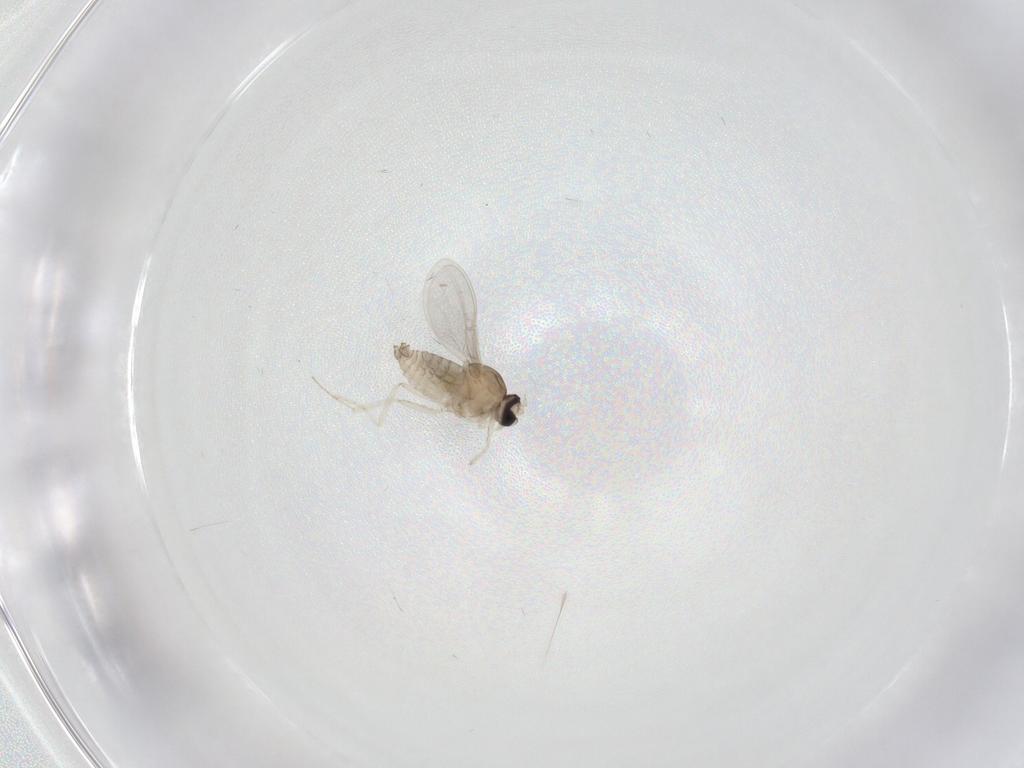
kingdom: Animalia
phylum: Arthropoda
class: Insecta
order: Diptera
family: Cecidomyiidae
